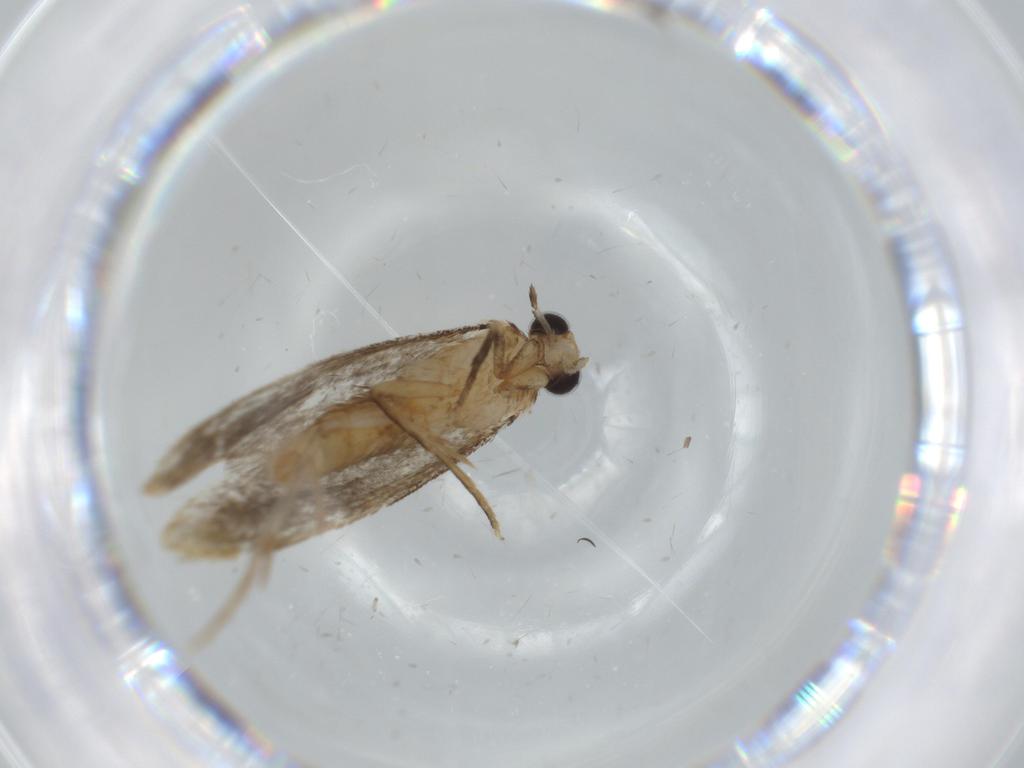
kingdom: Animalia
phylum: Arthropoda
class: Insecta
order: Lepidoptera
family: Tineidae
